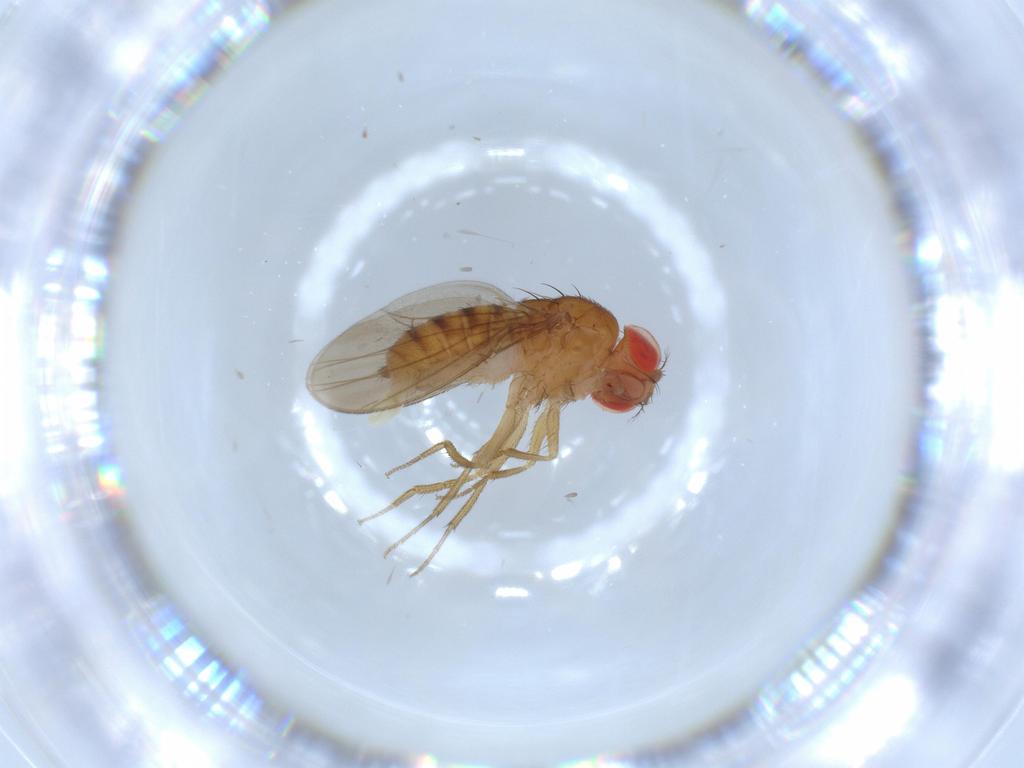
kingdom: Animalia
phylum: Arthropoda
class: Insecta
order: Diptera
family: Drosophilidae
